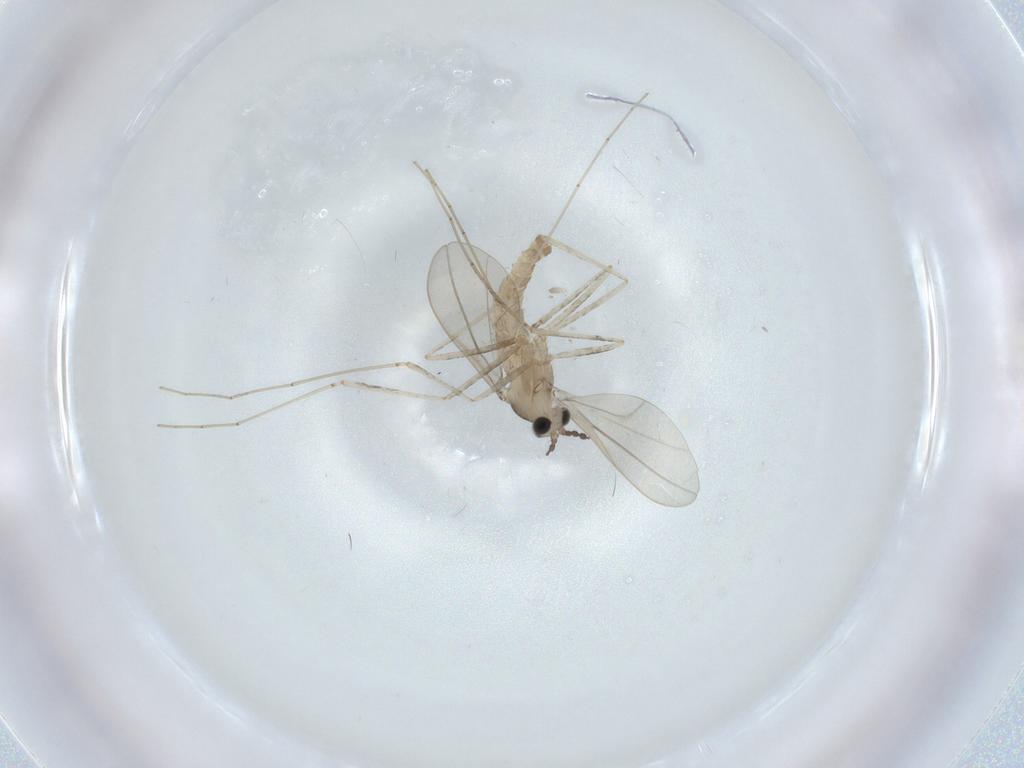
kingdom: Animalia
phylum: Arthropoda
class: Insecta
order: Diptera
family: Cecidomyiidae
